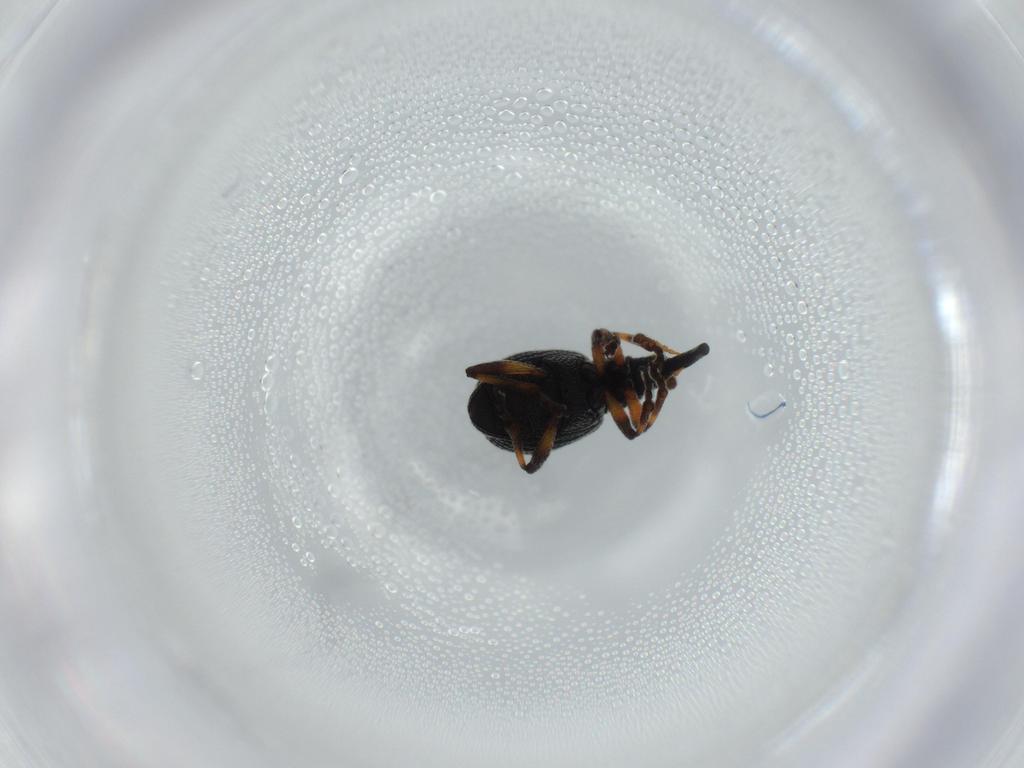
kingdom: Animalia
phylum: Arthropoda
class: Insecta
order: Coleoptera
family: Brentidae
